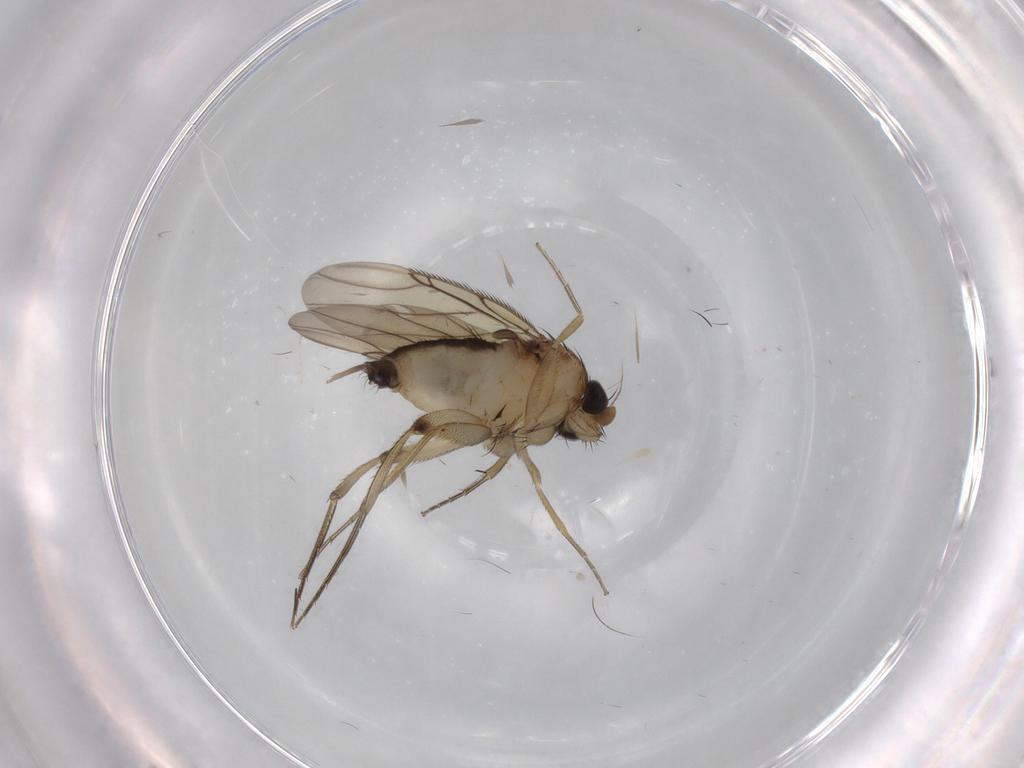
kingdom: Animalia
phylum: Arthropoda
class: Insecta
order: Diptera
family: Phoridae
